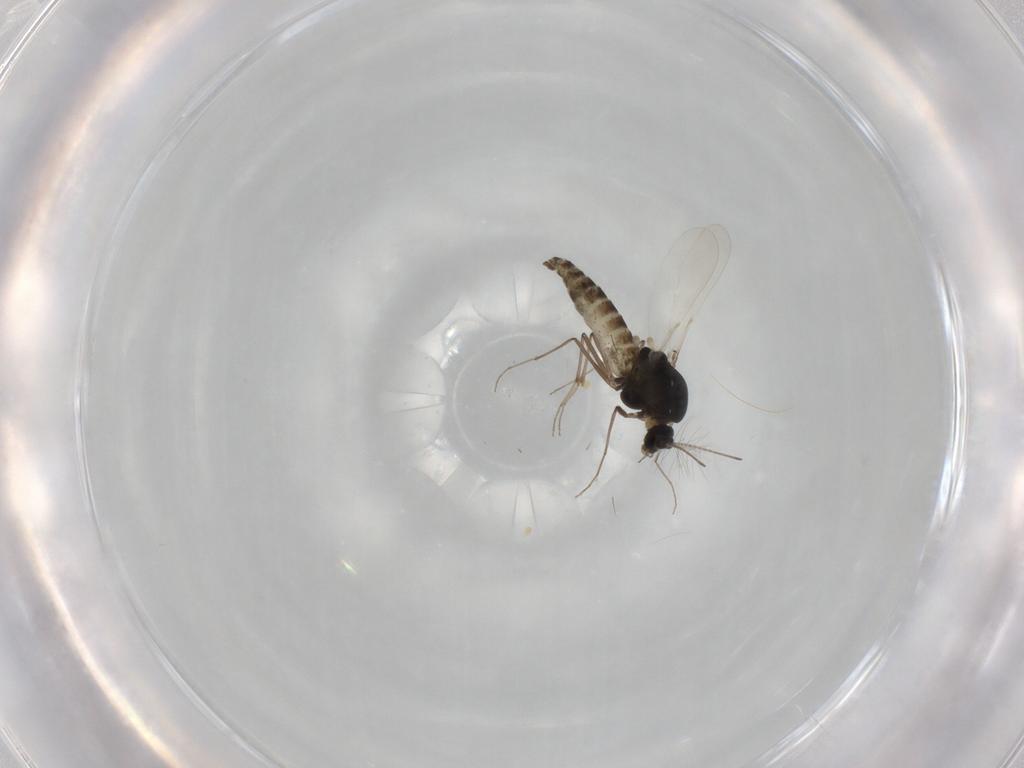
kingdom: Animalia
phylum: Arthropoda
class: Insecta
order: Diptera
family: Chironomidae
